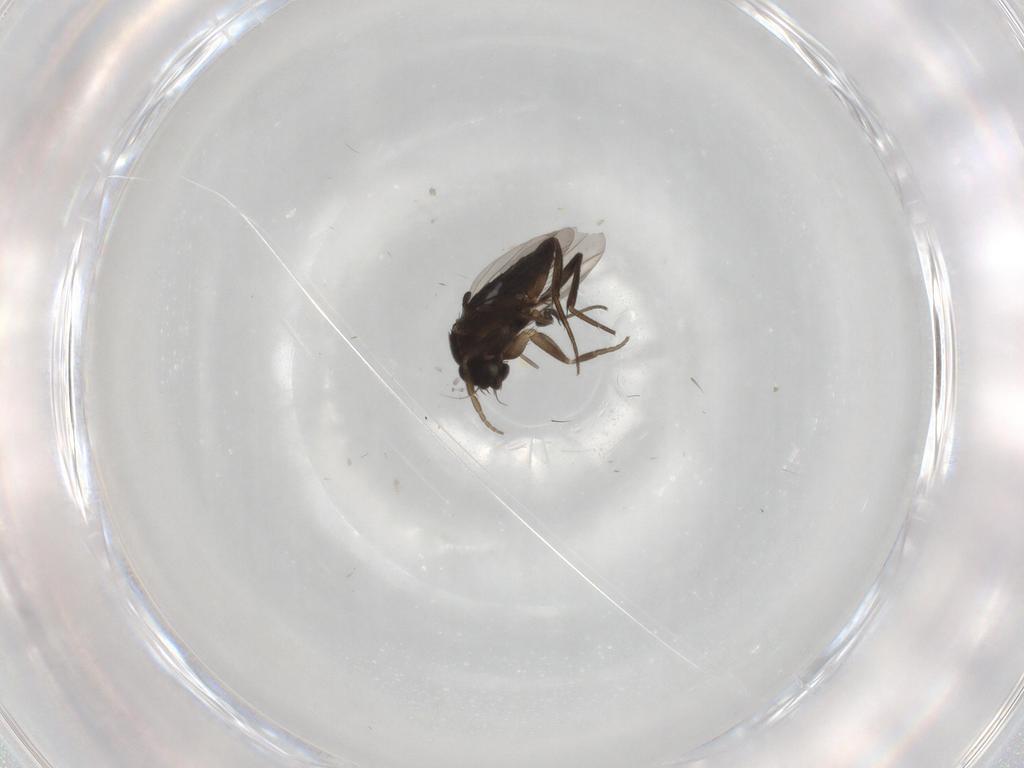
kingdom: Animalia
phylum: Arthropoda
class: Insecta
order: Diptera
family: Phoridae
